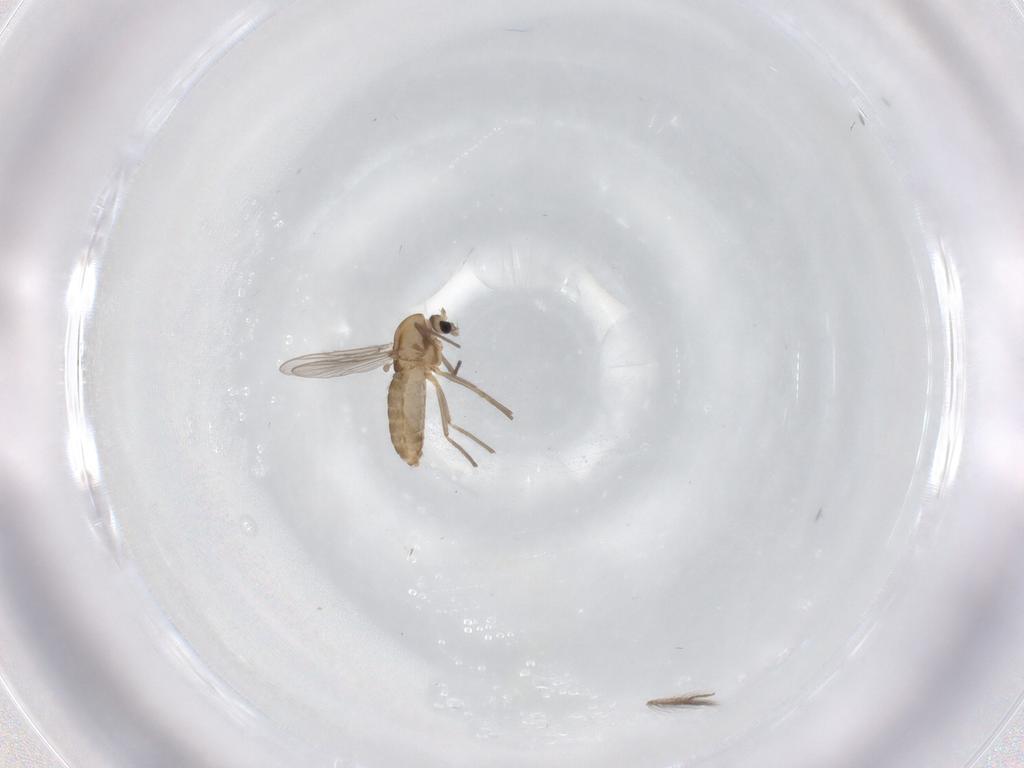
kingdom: Animalia
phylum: Arthropoda
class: Insecta
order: Diptera
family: Chironomidae
